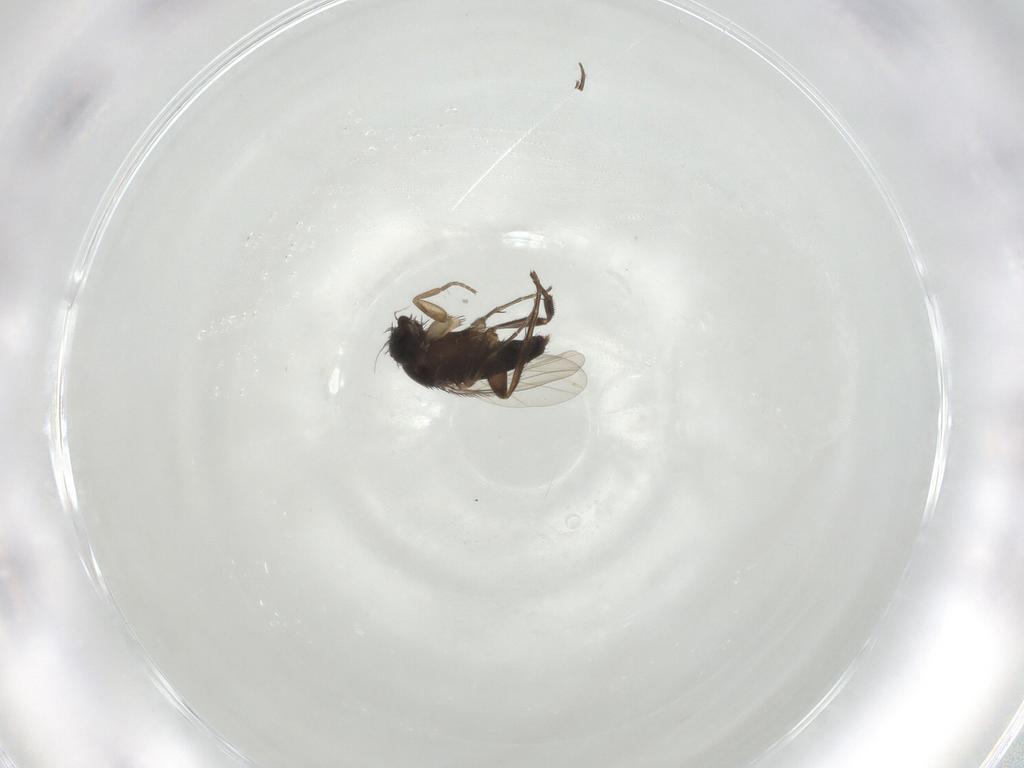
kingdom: Animalia
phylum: Arthropoda
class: Insecta
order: Diptera
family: Phoridae
